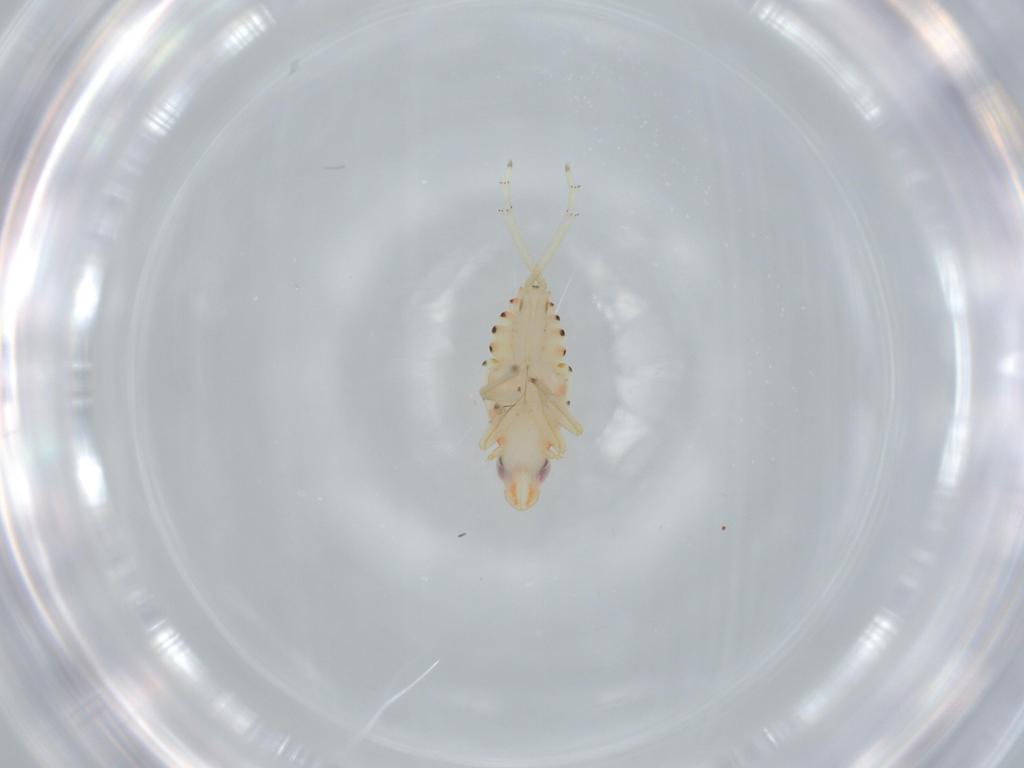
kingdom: Animalia
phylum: Arthropoda
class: Insecta
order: Hemiptera
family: Tropiduchidae
